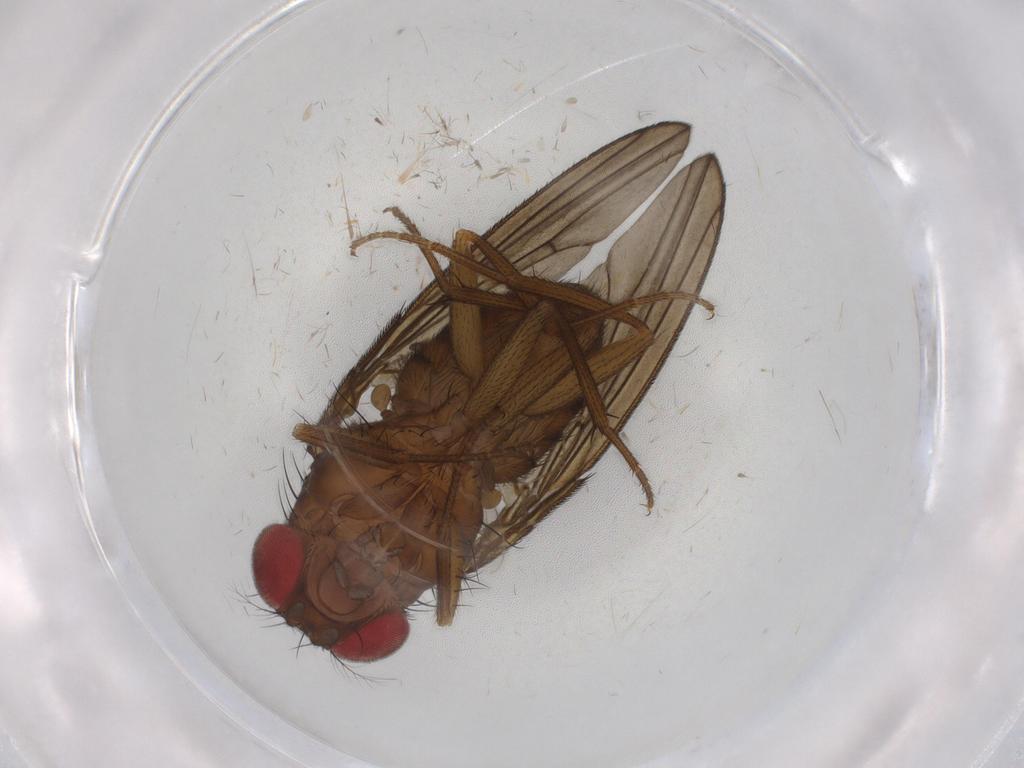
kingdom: Animalia
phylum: Arthropoda
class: Insecta
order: Diptera
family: Drosophilidae
